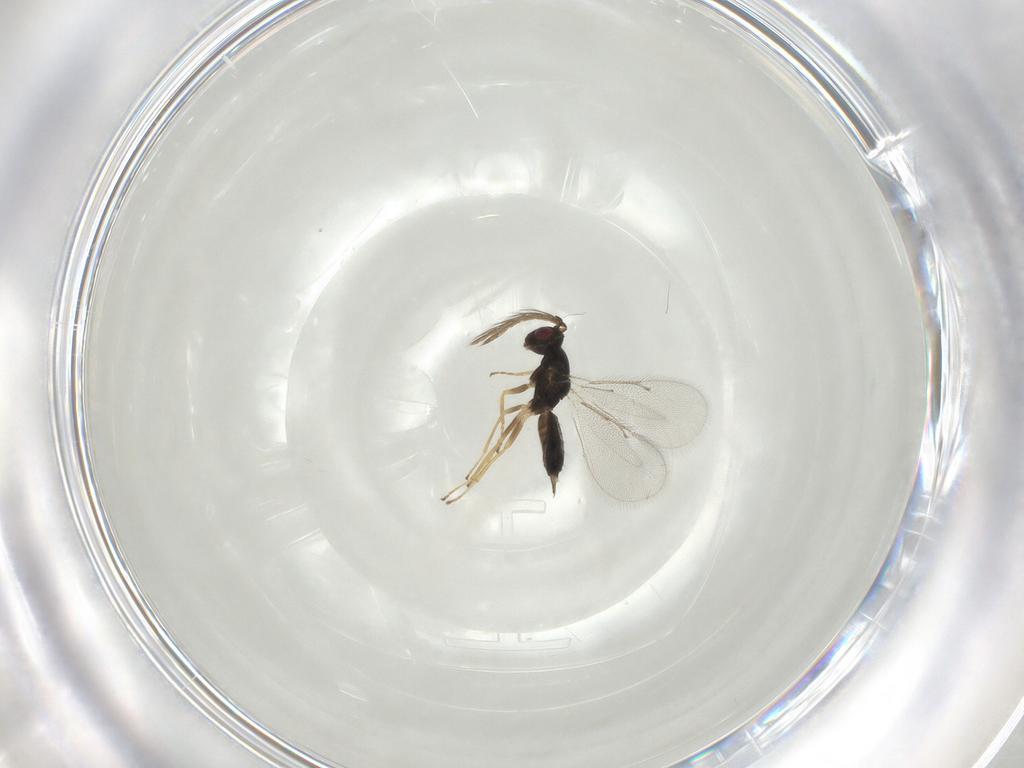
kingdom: Animalia
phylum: Arthropoda
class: Insecta
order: Hymenoptera
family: Eulophidae
